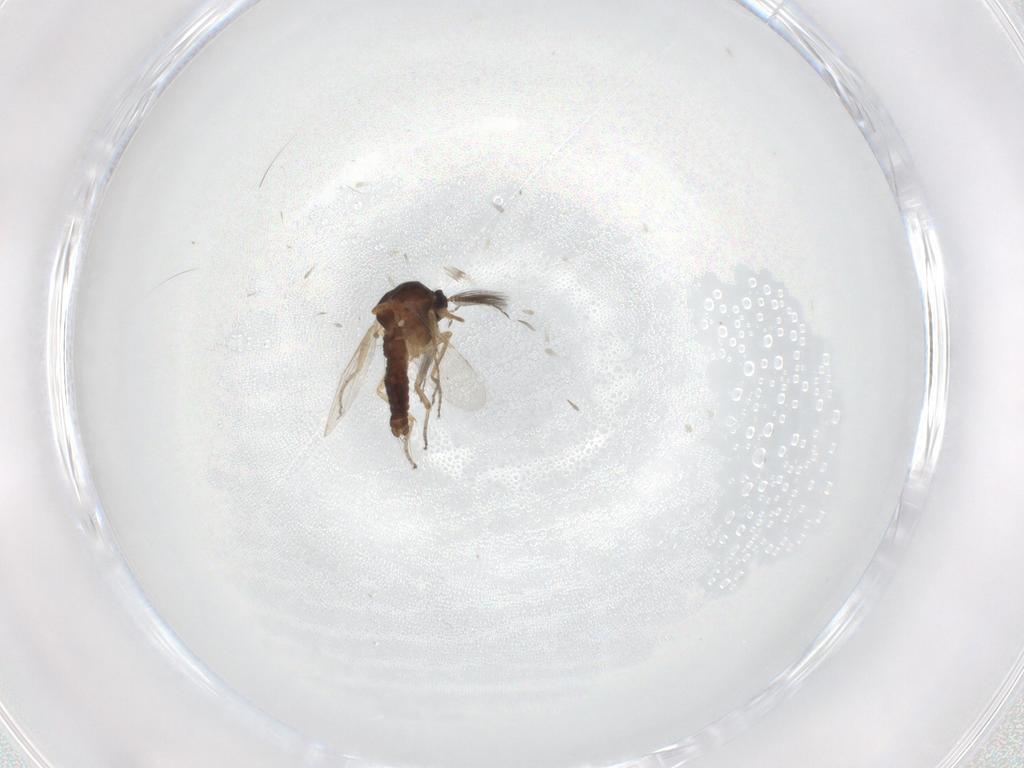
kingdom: Animalia
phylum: Arthropoda
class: Insecta
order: Diptera
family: Ceratopogonidae
